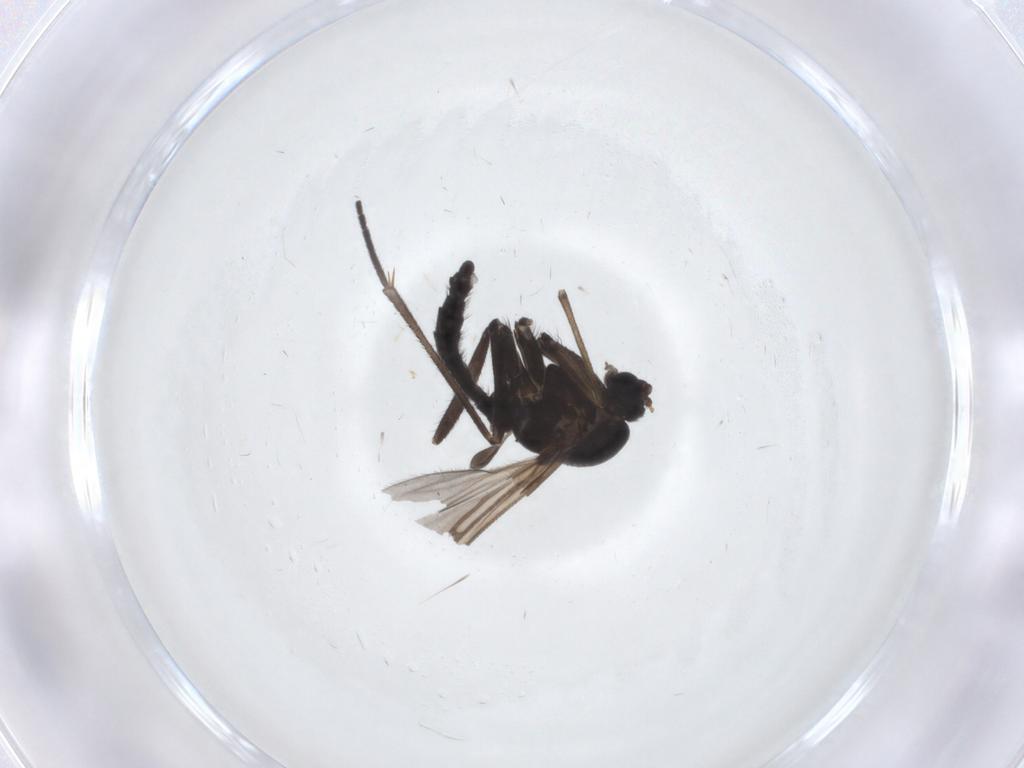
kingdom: Animalia
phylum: Arthropoda
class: Insecta
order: Diptera
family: Sciaridae
